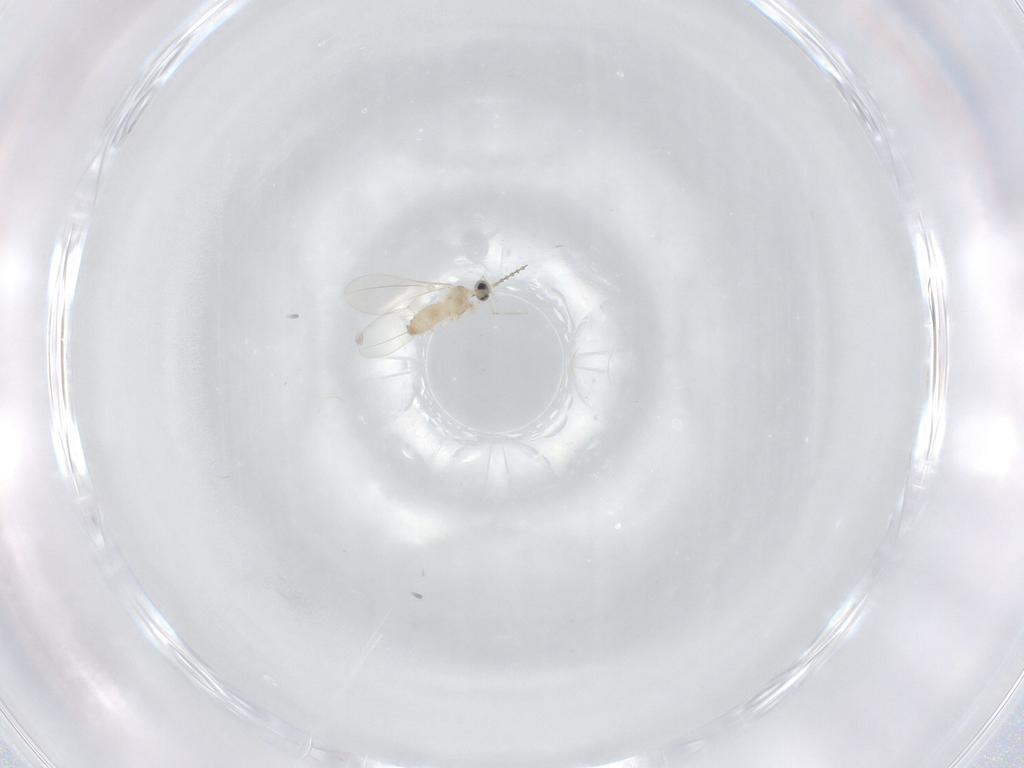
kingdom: Animalia
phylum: Arthropoda
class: Insecta
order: Diptera
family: Cecidomyiidae
